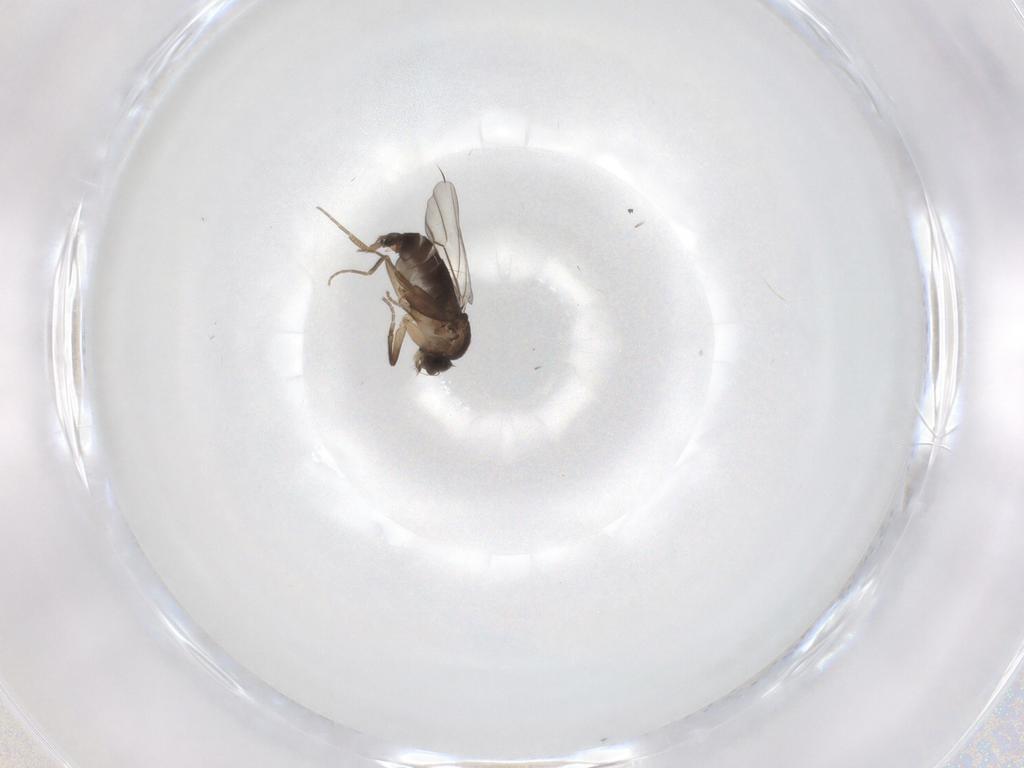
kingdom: Animalia
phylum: Arthropoda
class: Insecta
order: Diptera
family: Phoridae
